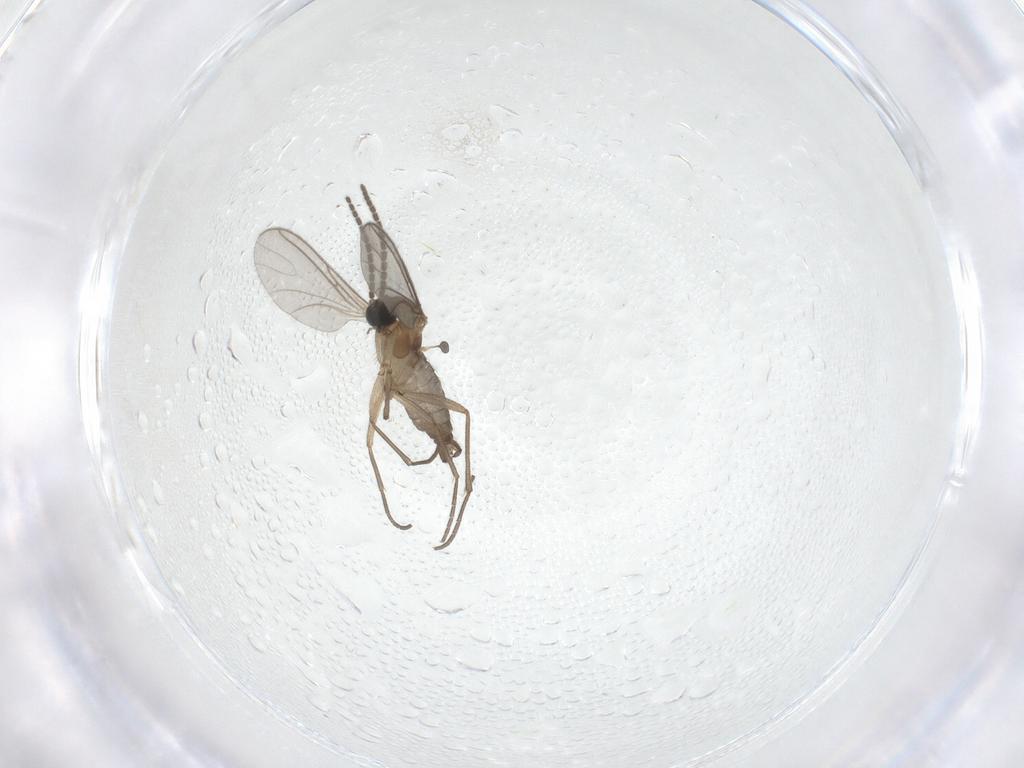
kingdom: Animalia
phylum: Arthropoda
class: Insecta
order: Diptera
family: Sciaridae
